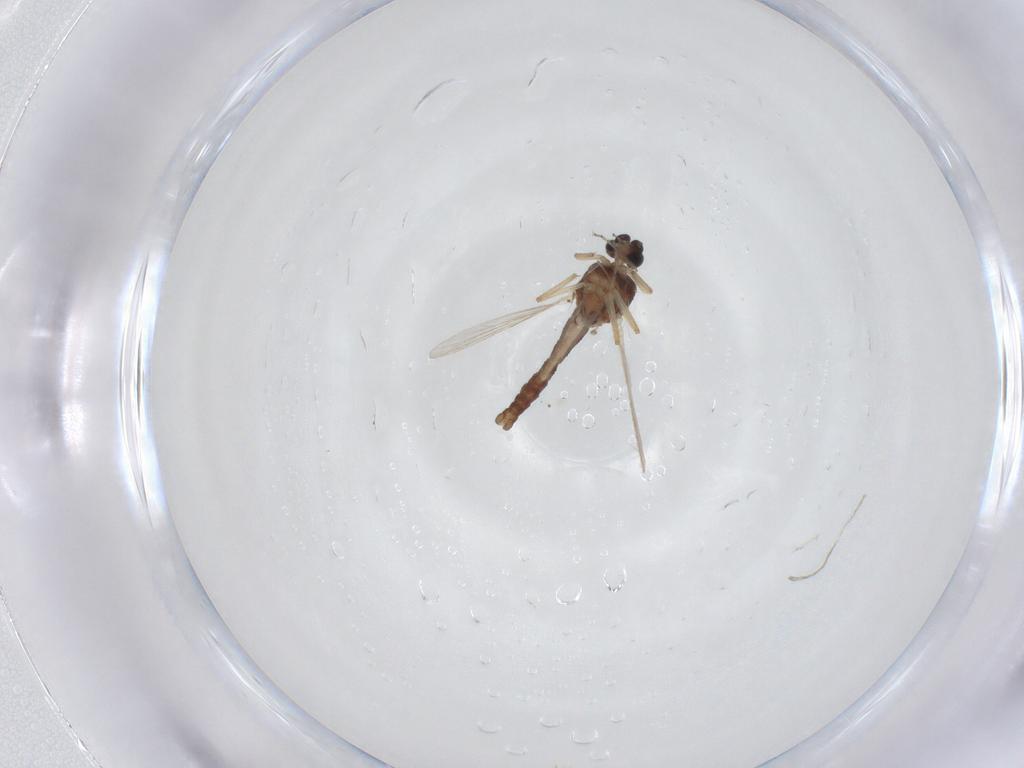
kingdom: Animalia
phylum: Arthropoda
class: Insecta
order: Diptera
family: Ceratopogonidae
